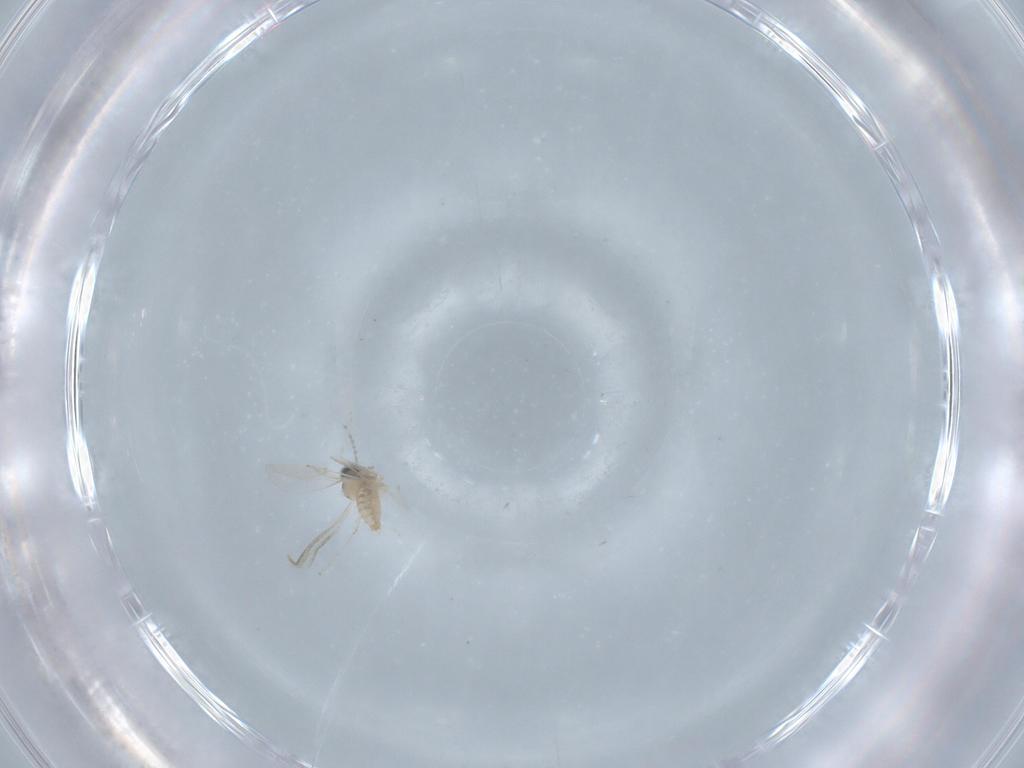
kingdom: Animalia
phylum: Arthropoda
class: Insecta
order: Diptera
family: Cecidomyiidae
